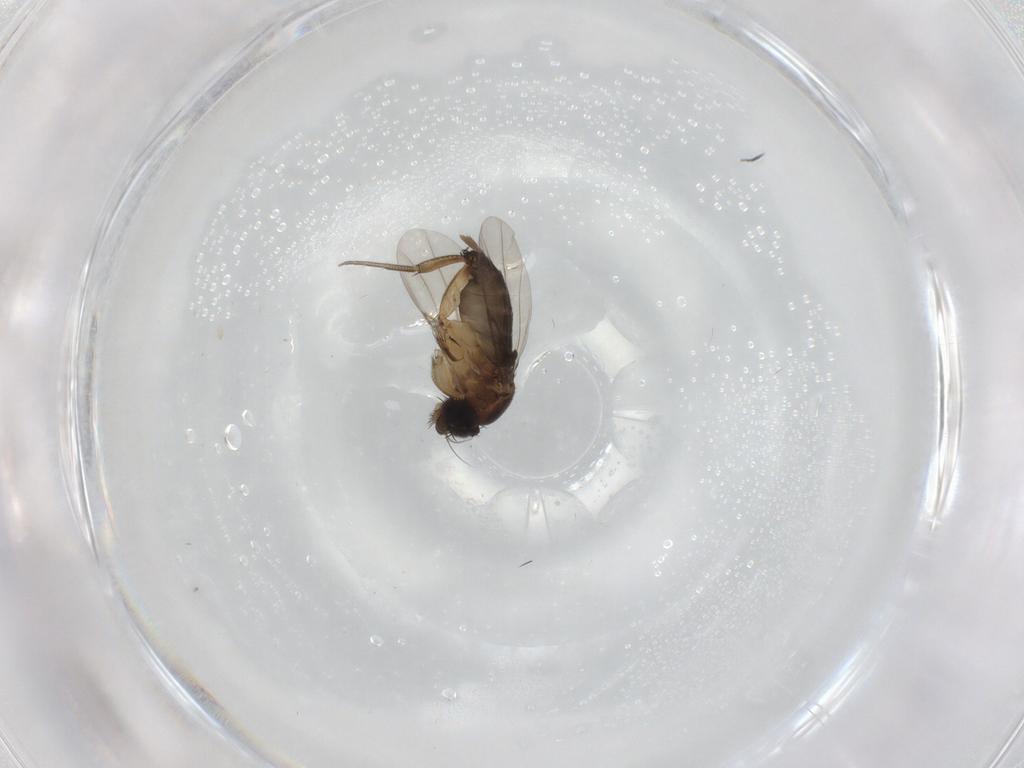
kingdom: Animalia
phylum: Arthropoda
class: Insecta
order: Diptera
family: Phoridae
